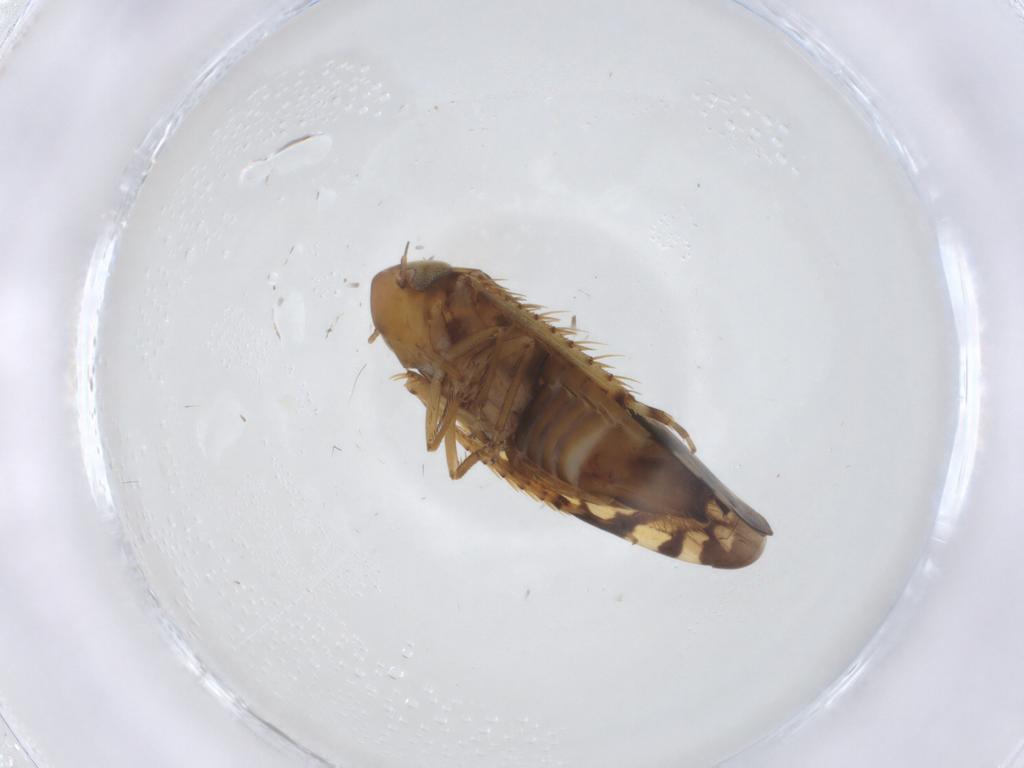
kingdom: Animalia
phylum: Arthropoda
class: Insecta
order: Hemiptera
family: Cicadellidae
